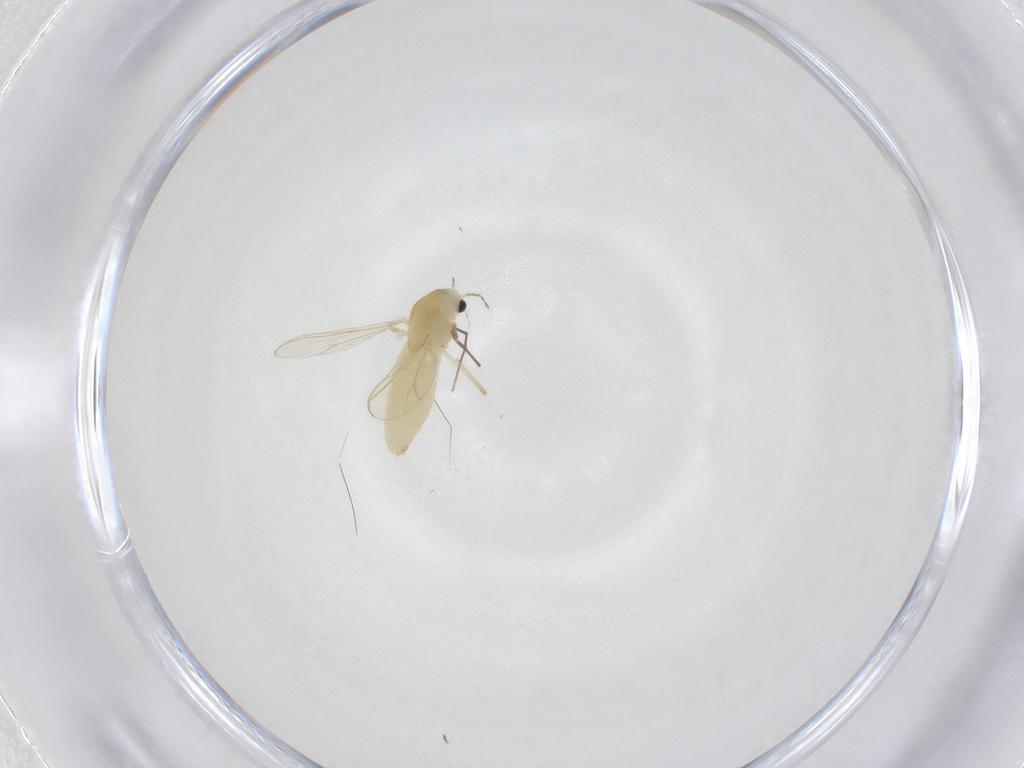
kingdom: Animalia
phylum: Arthropoda
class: Insecta
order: Diptera
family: Chironomidae
